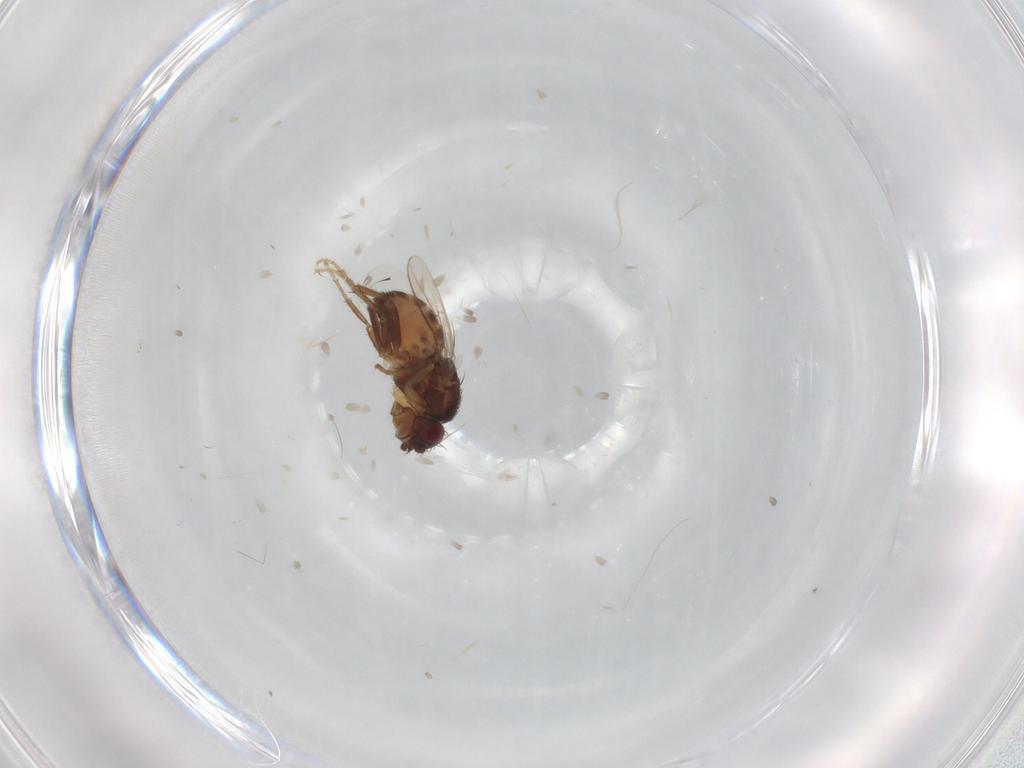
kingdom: Animalia
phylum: Arthropoda
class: Insecta
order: Diptera
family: Sphaeroceridae
